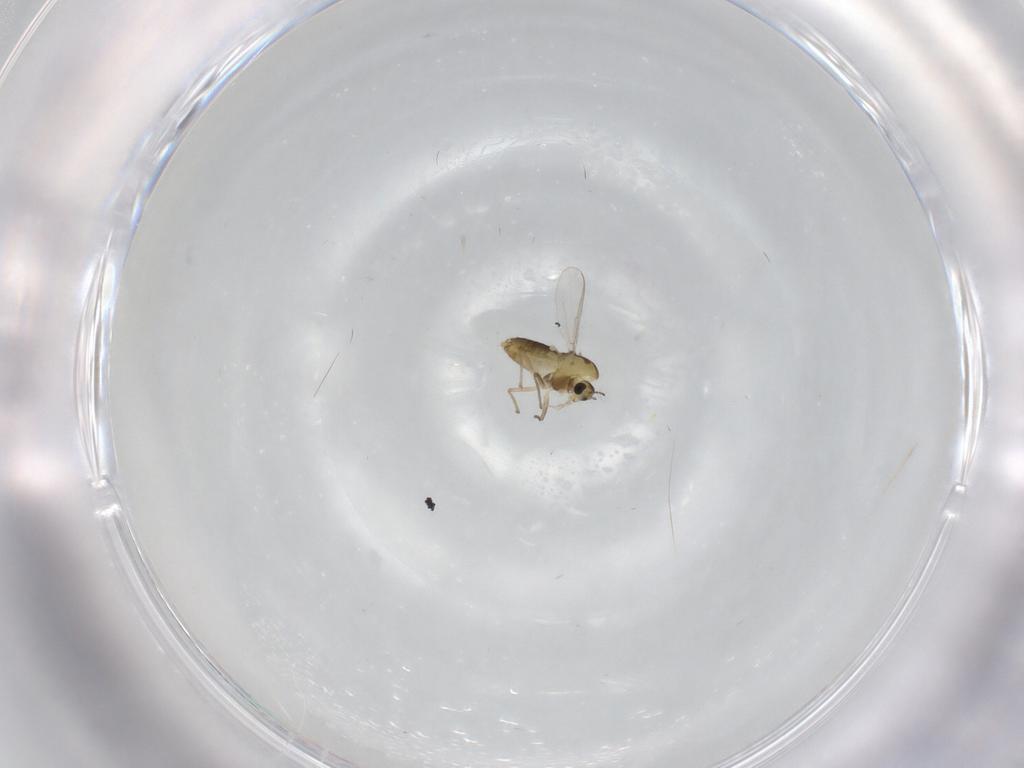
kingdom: Animalia
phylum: Arthropoda
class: Insecta
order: Diptera
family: Chironomidae
